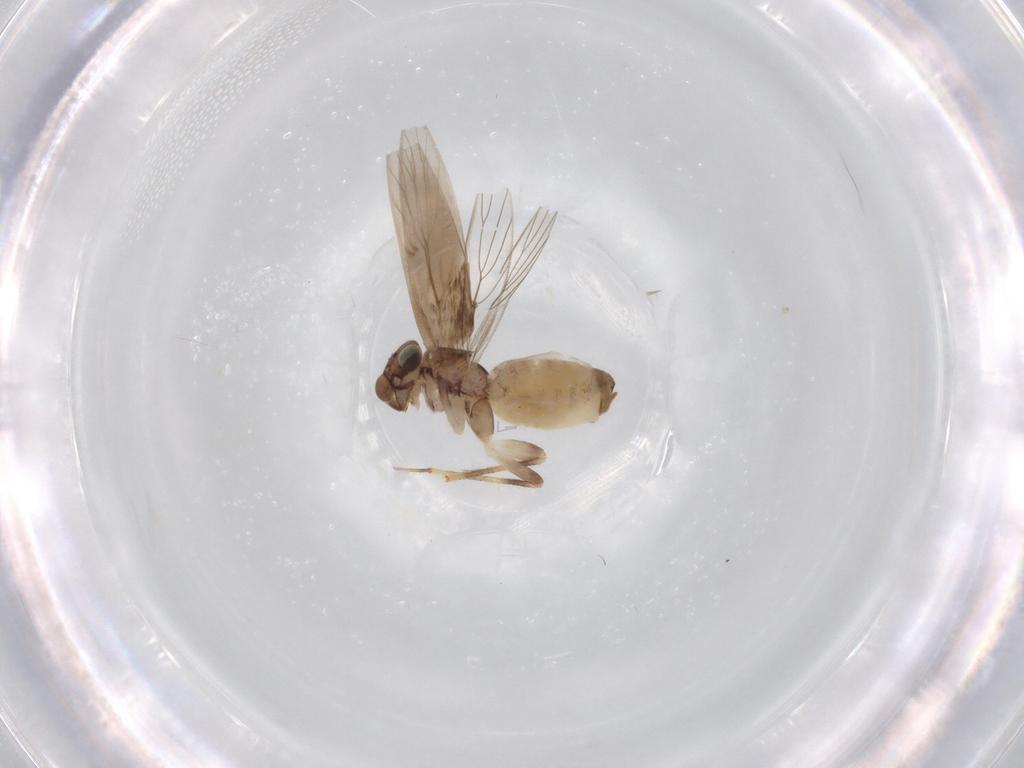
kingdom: Animalia
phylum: Arthropoda
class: Insecta
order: Psocodea
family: Lepidopsocidae
